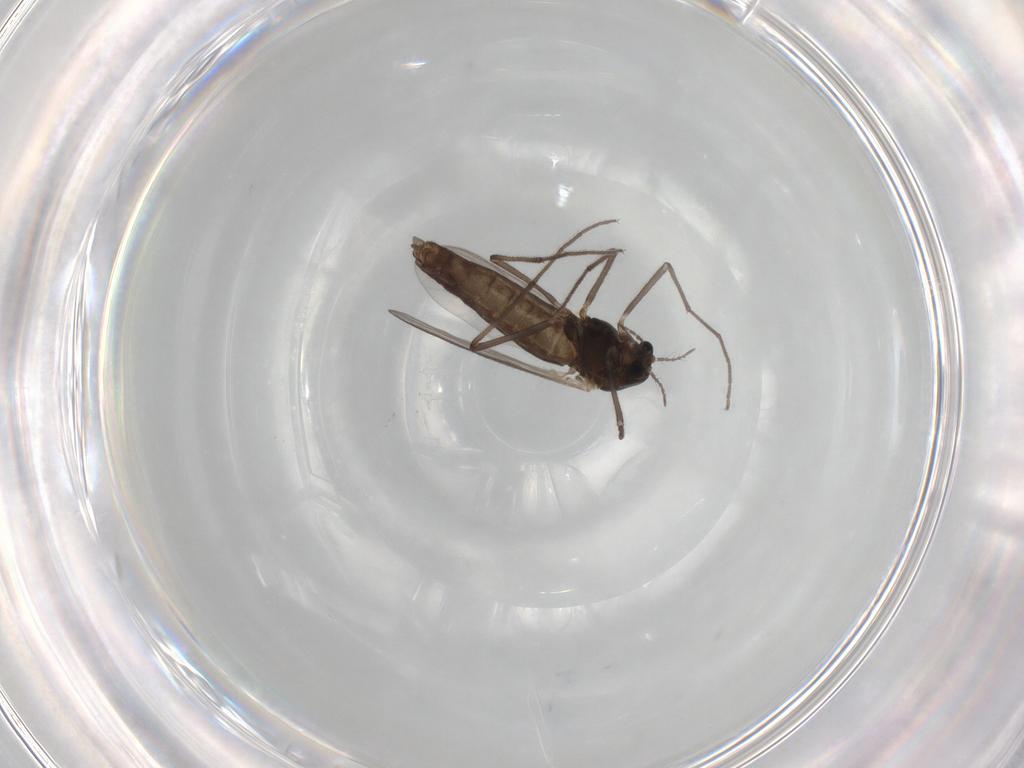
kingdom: Animalia
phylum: Arthropoda
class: Insecta
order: Diptera
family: Chironomidae
